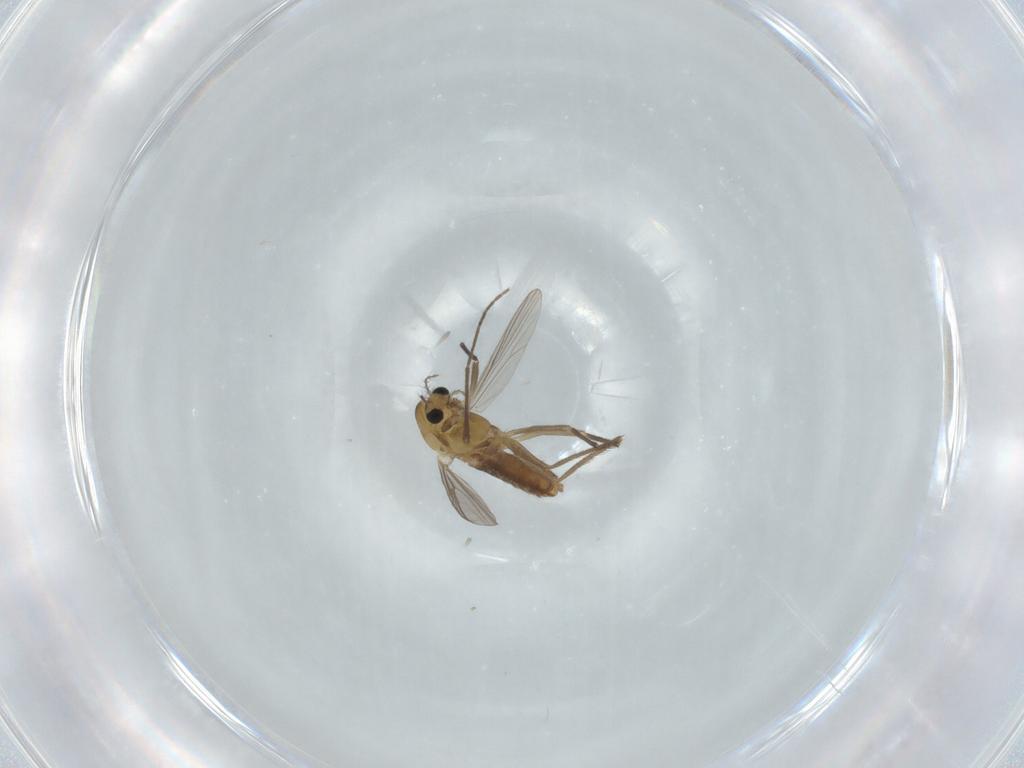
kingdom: Animalia
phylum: Arthropoda
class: Insecta
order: Diptera
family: Chironomidae
